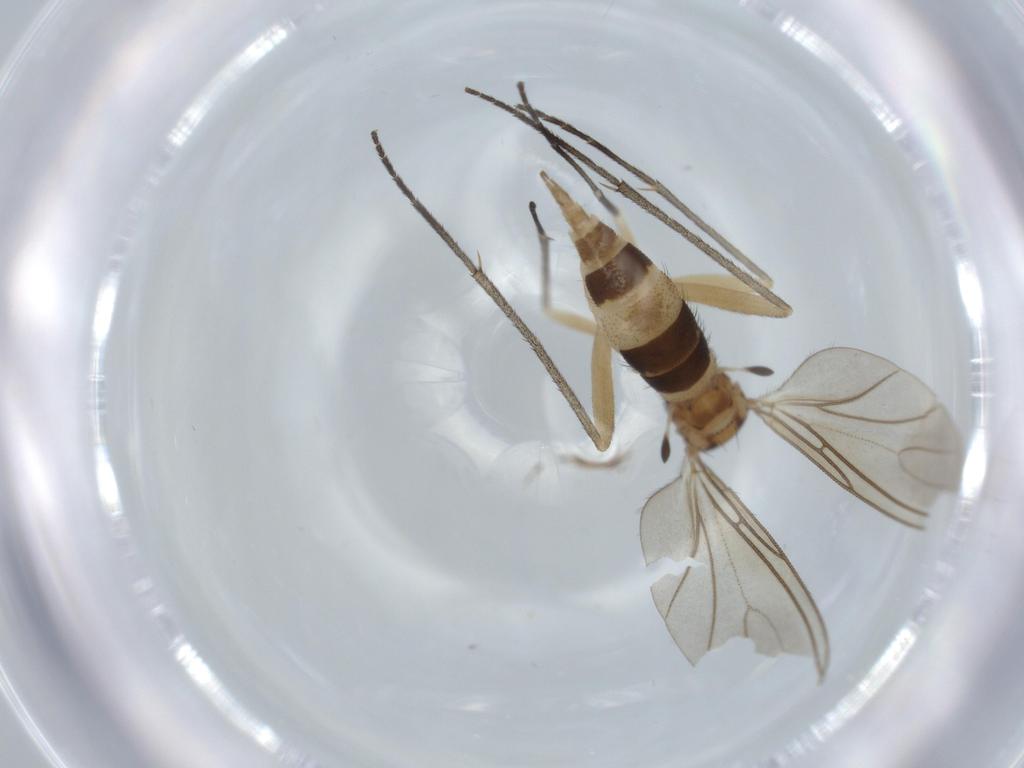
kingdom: Animalia
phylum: Arthropoda
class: Insecta
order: Diptera
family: Sciaridae
